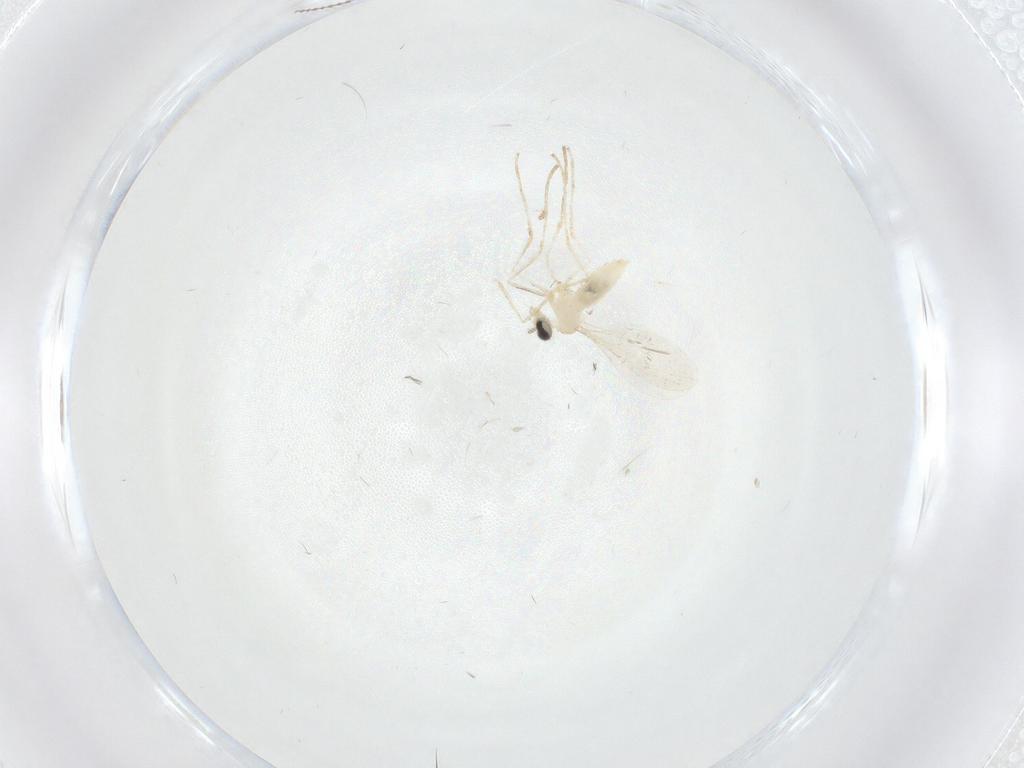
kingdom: Animalia
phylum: Arthropoda
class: Insecta
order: Diptera
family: Cecidomyiidae
